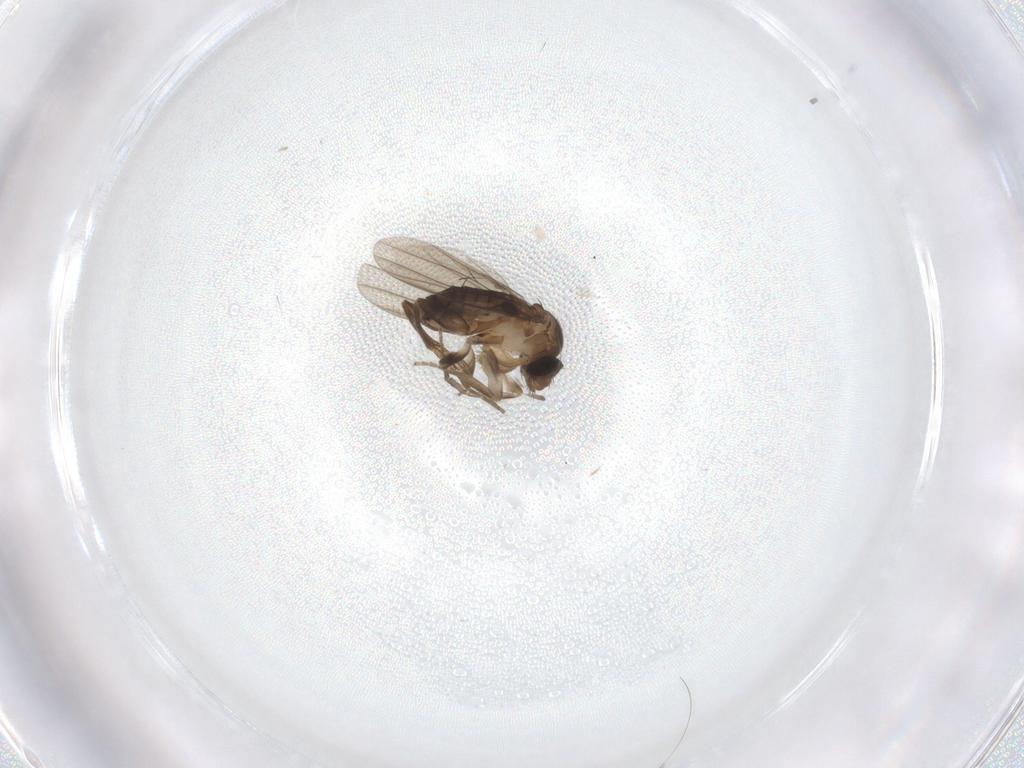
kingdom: Animalia
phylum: Arthropoda
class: Insecta
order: Diptera
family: Phoridae
